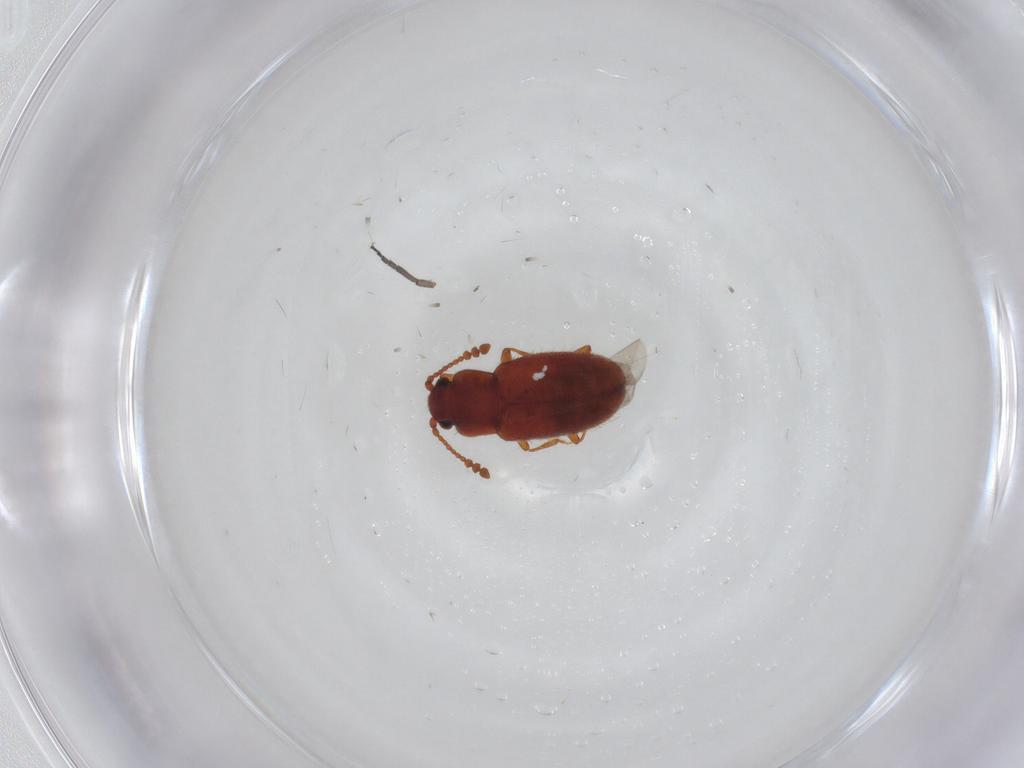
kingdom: Animalia
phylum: Arthropoda
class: Insecta
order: Coleoptera
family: Cryptophagidae
